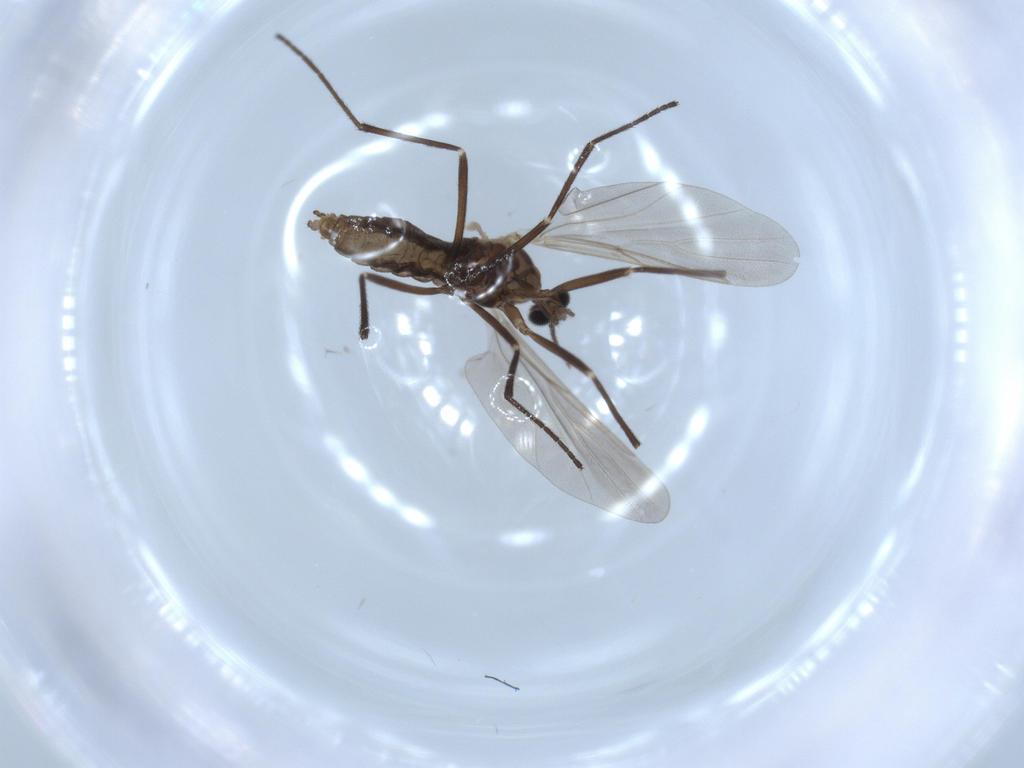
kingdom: Animalia
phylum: Arthropoda
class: Insecta
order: Diptera
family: Cecidomyiidae
